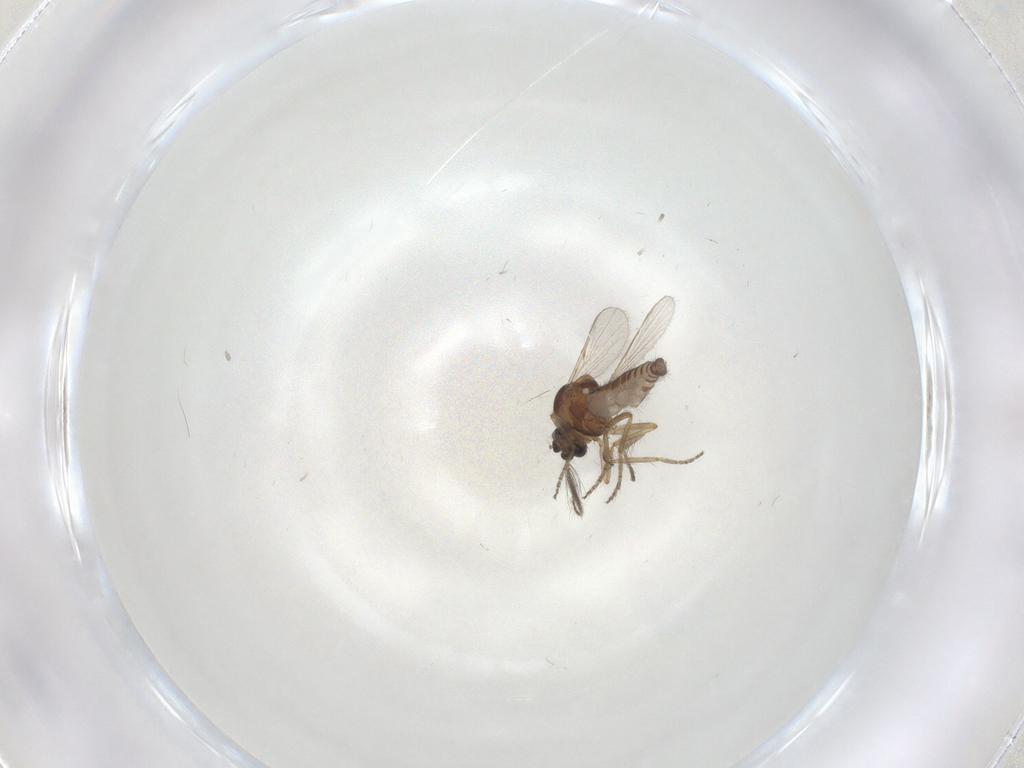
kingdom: Animalia
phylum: Arthropoda
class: Insecta
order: Diptera
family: Ceratopogonidae
